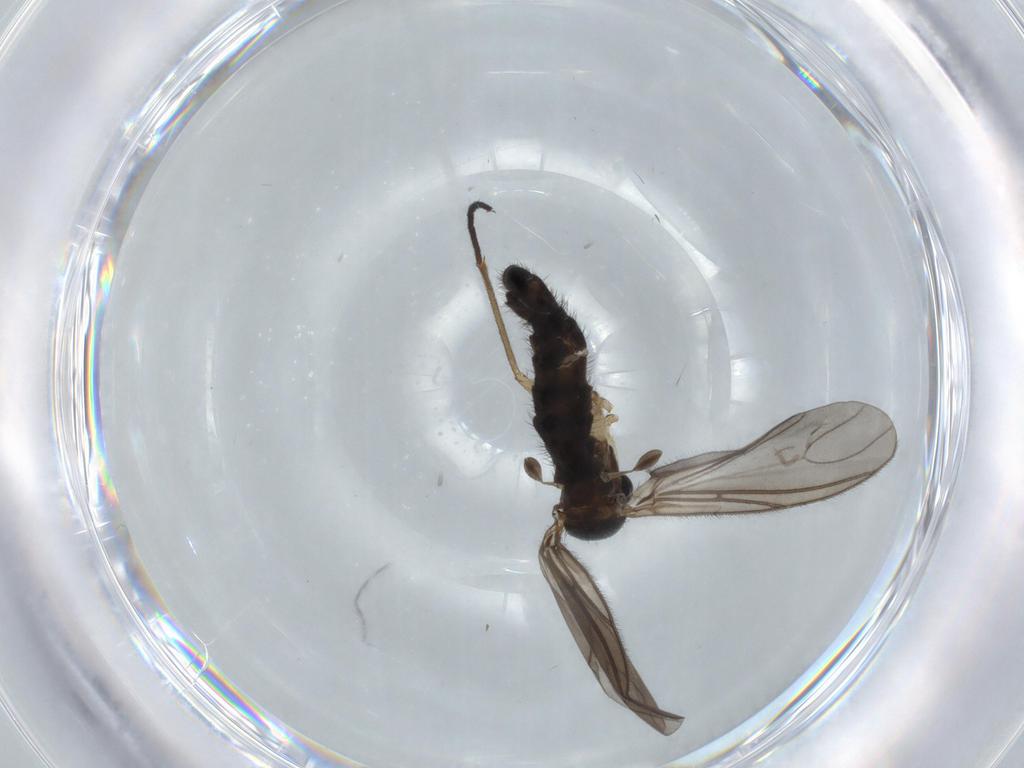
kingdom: Animalia
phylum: Arthropoda
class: Insecta
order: Diptera
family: Sciaridae
